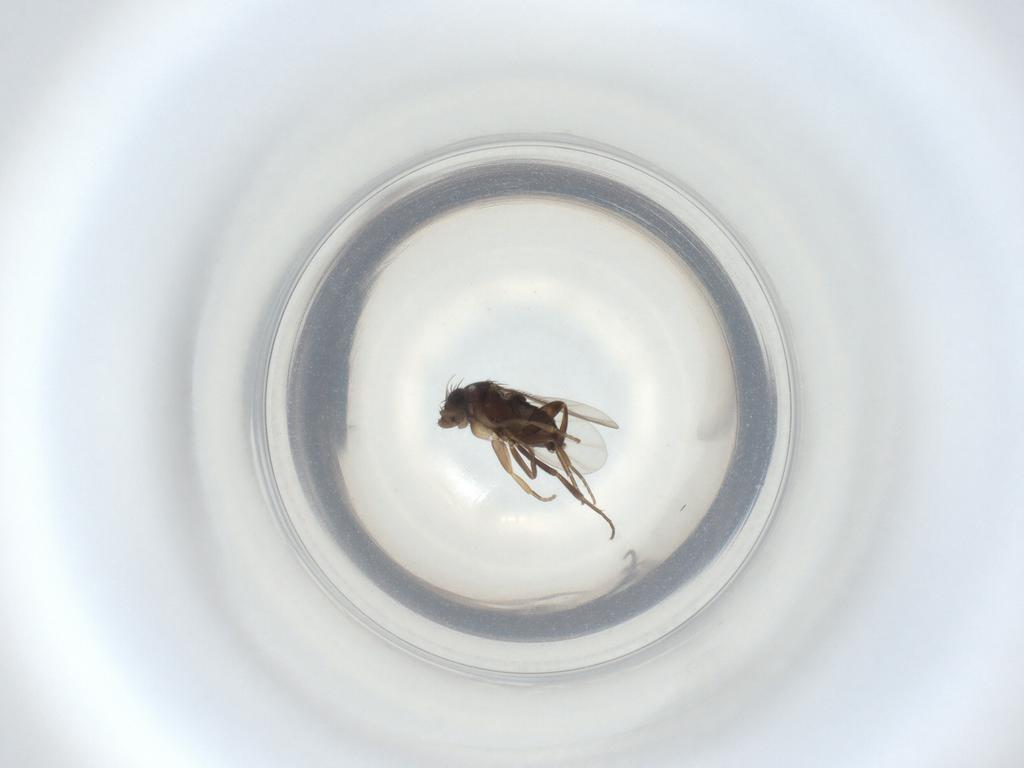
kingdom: Animalia
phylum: Arthropoda
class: Insecta
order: Diptera
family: Phoridae
